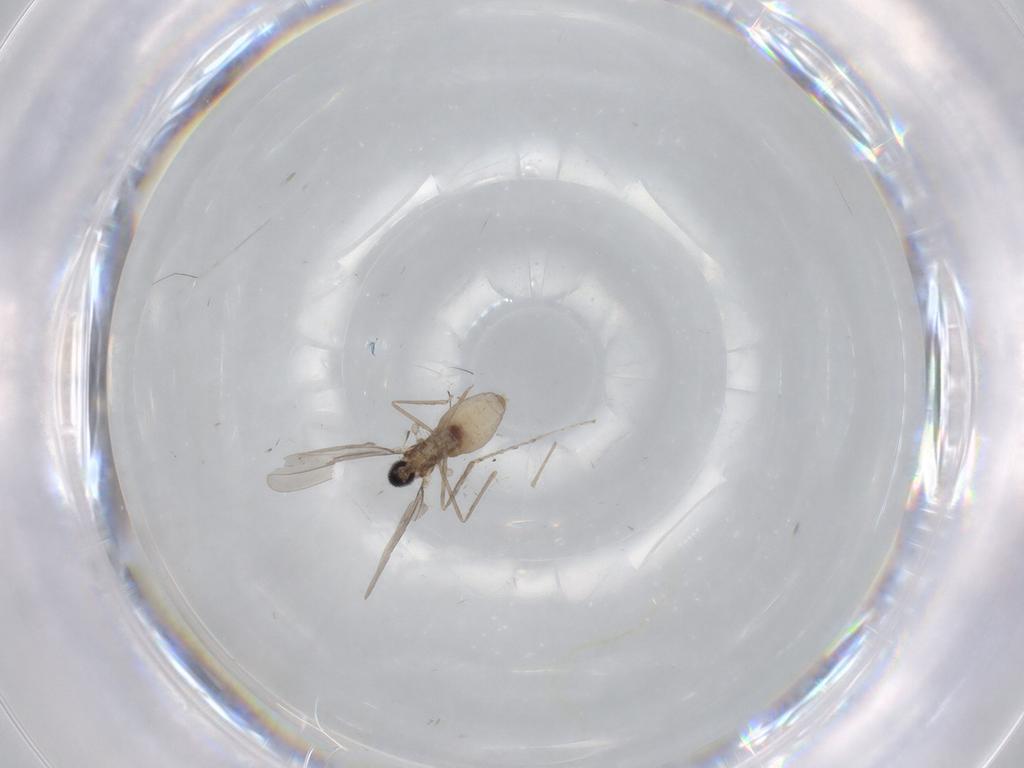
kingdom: Animalia
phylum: Arthropoda
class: Insecta
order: Diptera
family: Cecidomyiidae
